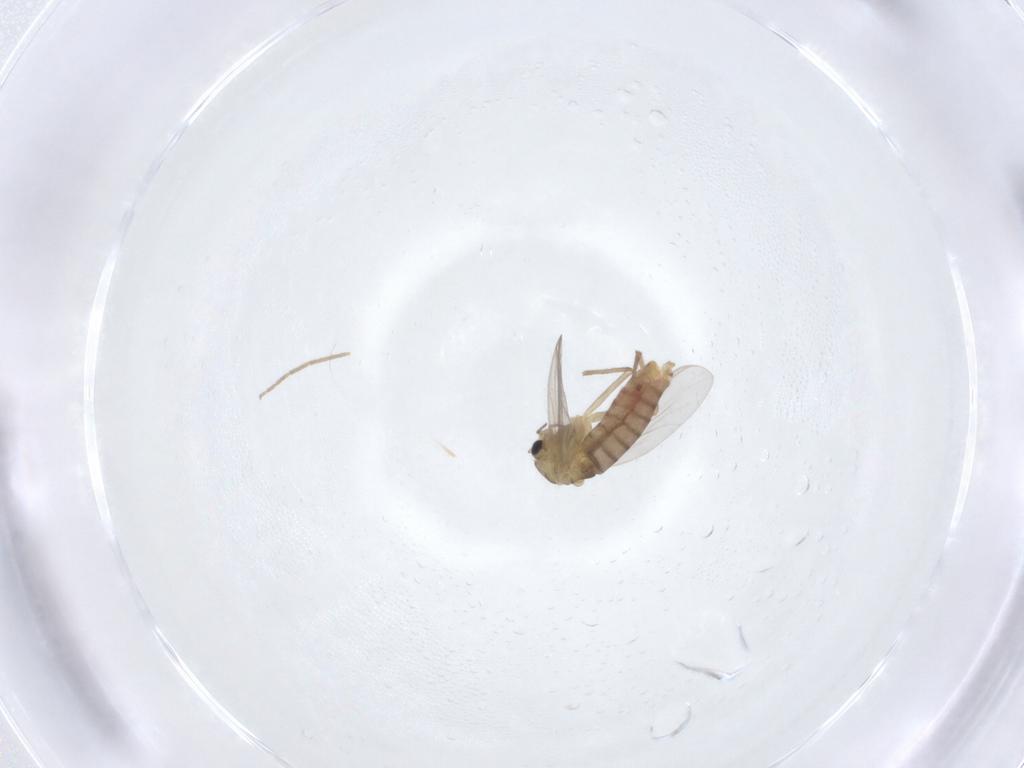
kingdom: Animalia
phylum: Arthropoda
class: Insecta
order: Diptera
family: Chironomidae
